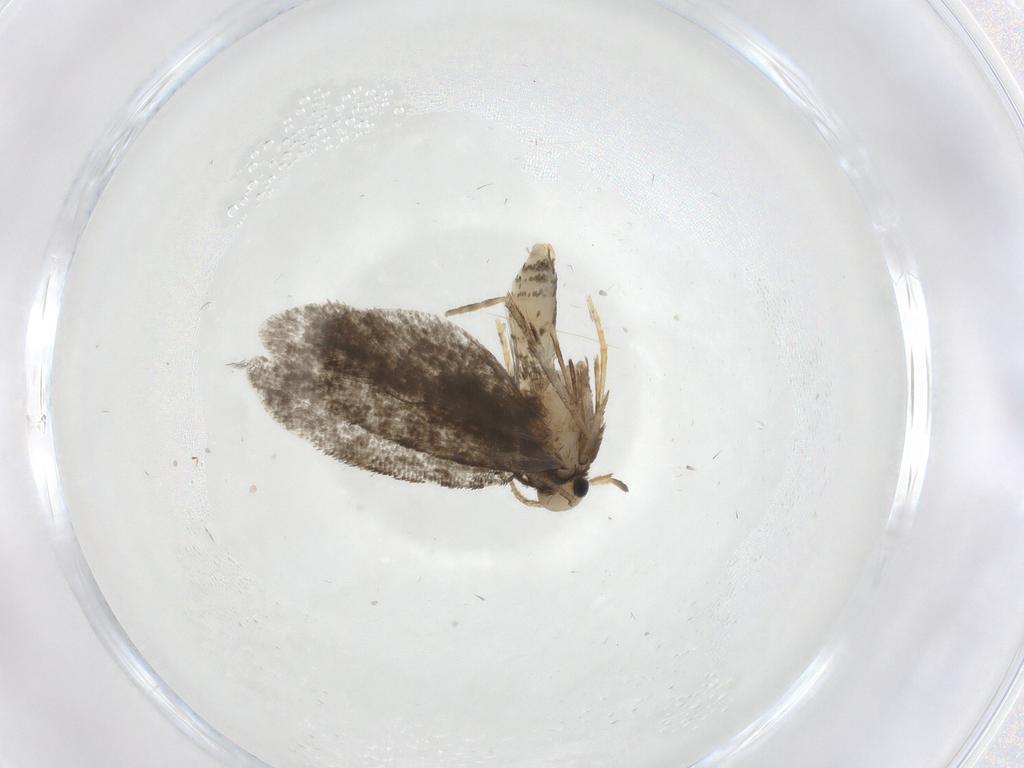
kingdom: Animalia
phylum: Arthropoda
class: Insecta
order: Lepidoptera
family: Psychidae
